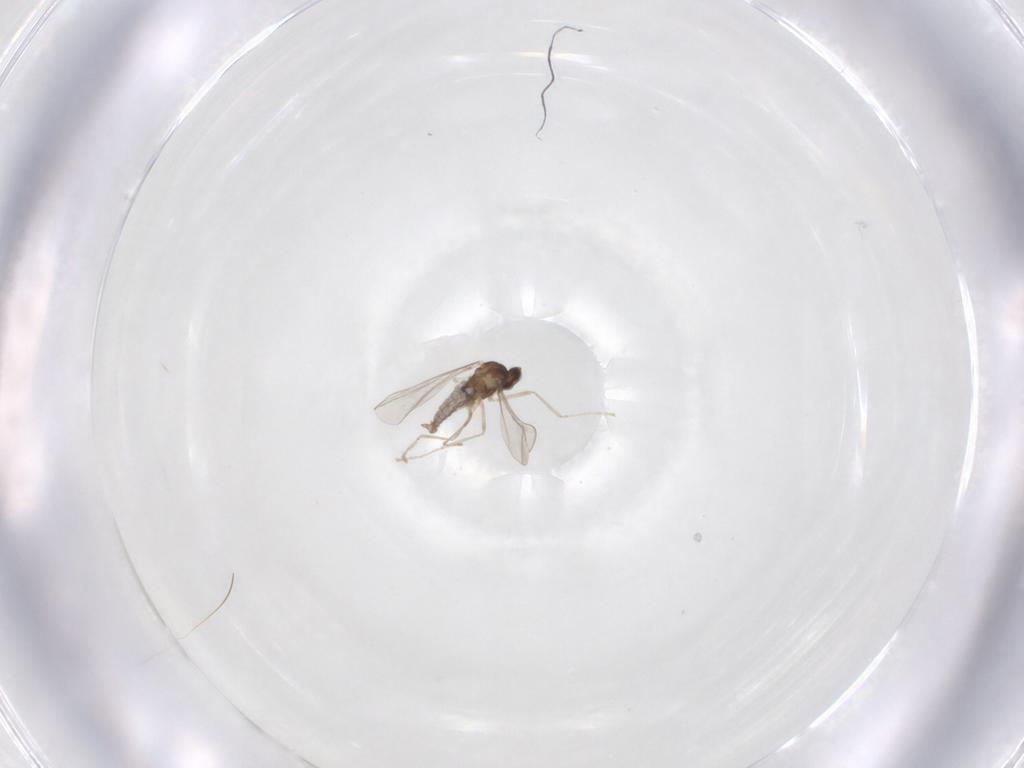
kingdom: Animalia
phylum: Arthropoda
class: Insecta
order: Diptera
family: Cecidomyiidae
